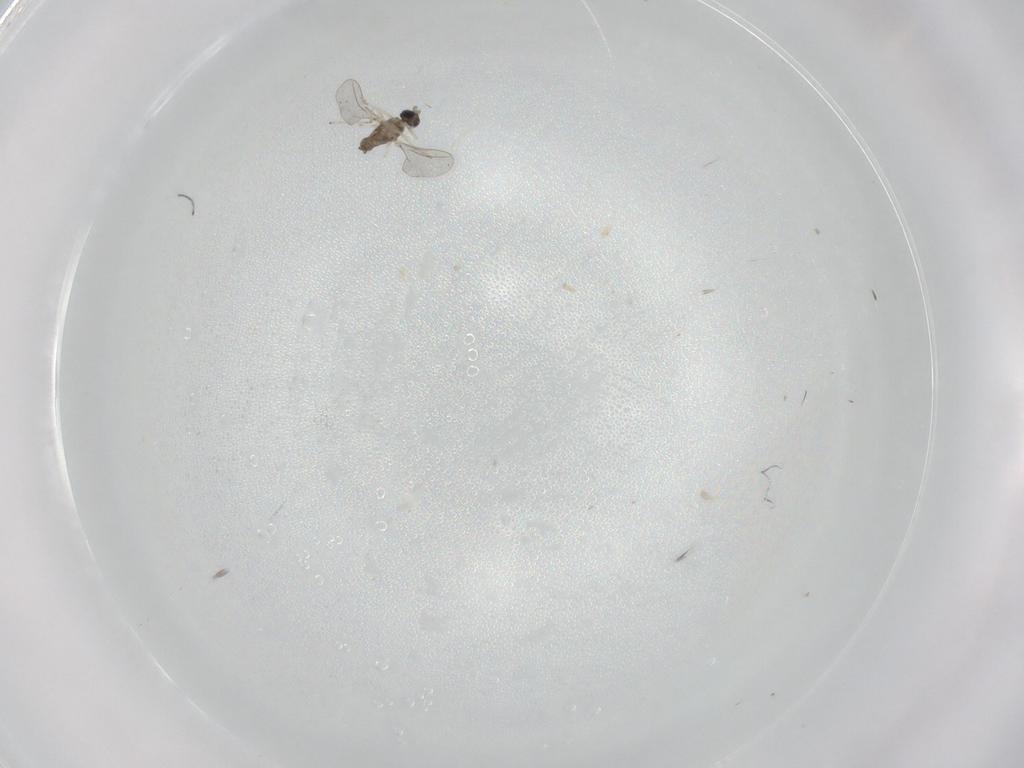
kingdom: Animalia
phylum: Arthropoda
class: Insecta
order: Diptera
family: Cecidomyiidae
